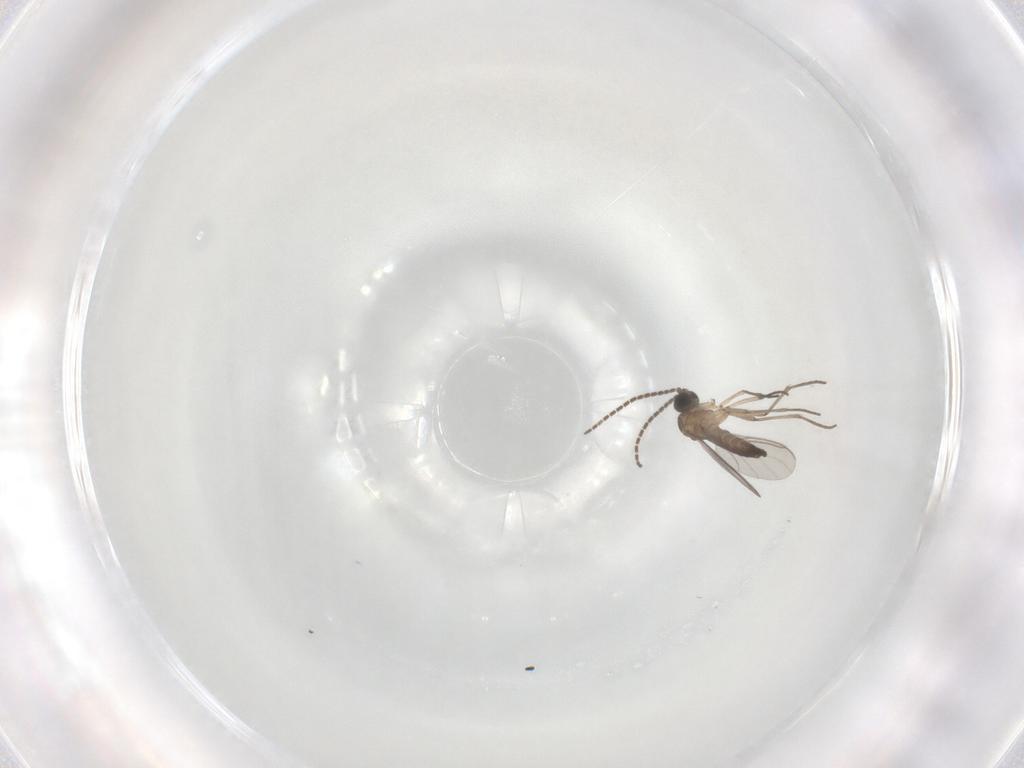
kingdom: Animalia
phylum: Arthropoda
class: Insecta
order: Diptera
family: Sciaridae
